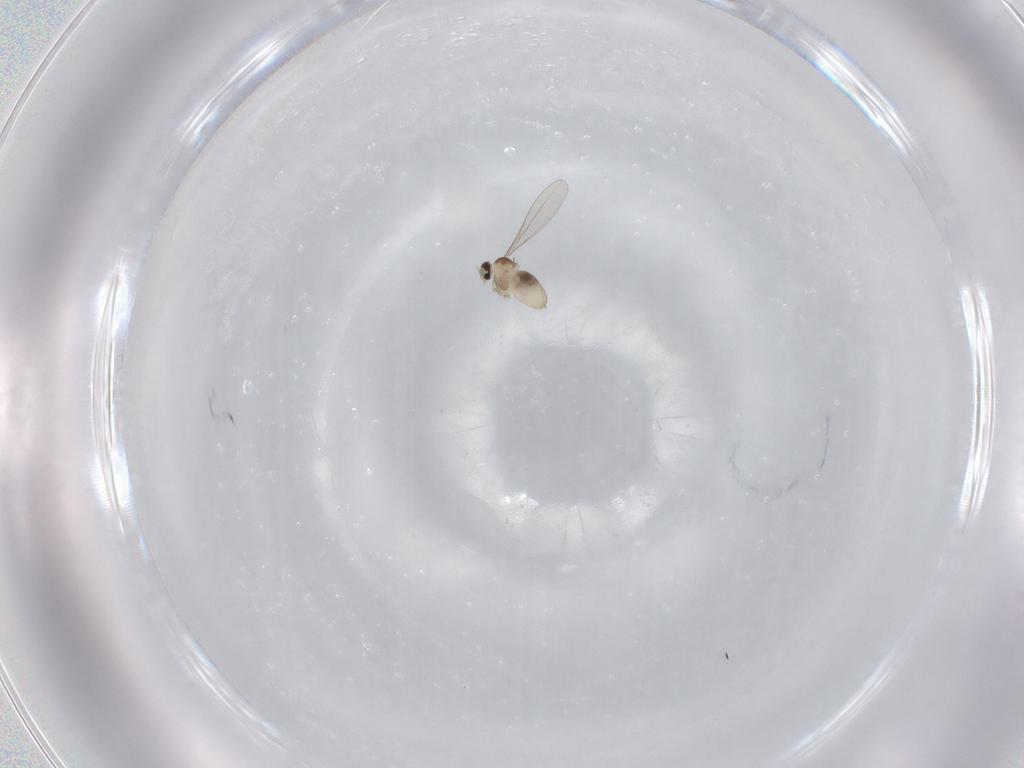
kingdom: Animalia
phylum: Arthropoda
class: Insecta
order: Diptera
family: Cecidomyiidae
